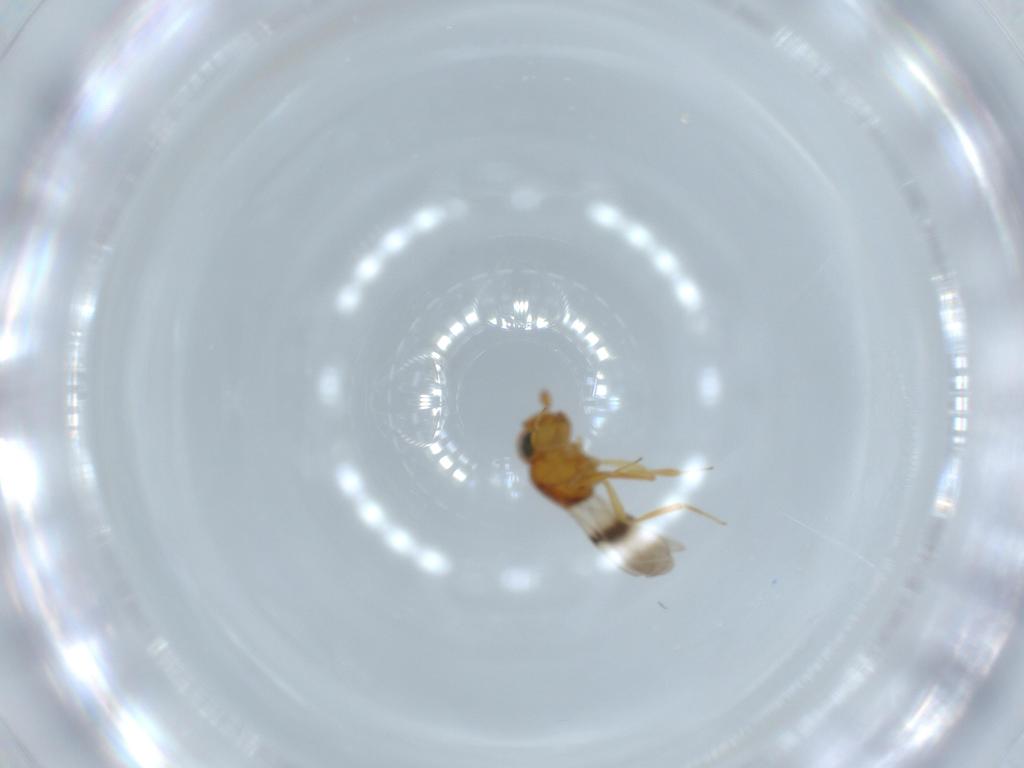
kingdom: Animalia
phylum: Arthropoda
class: Insecta
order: Hymenoptera
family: Scelionidae
